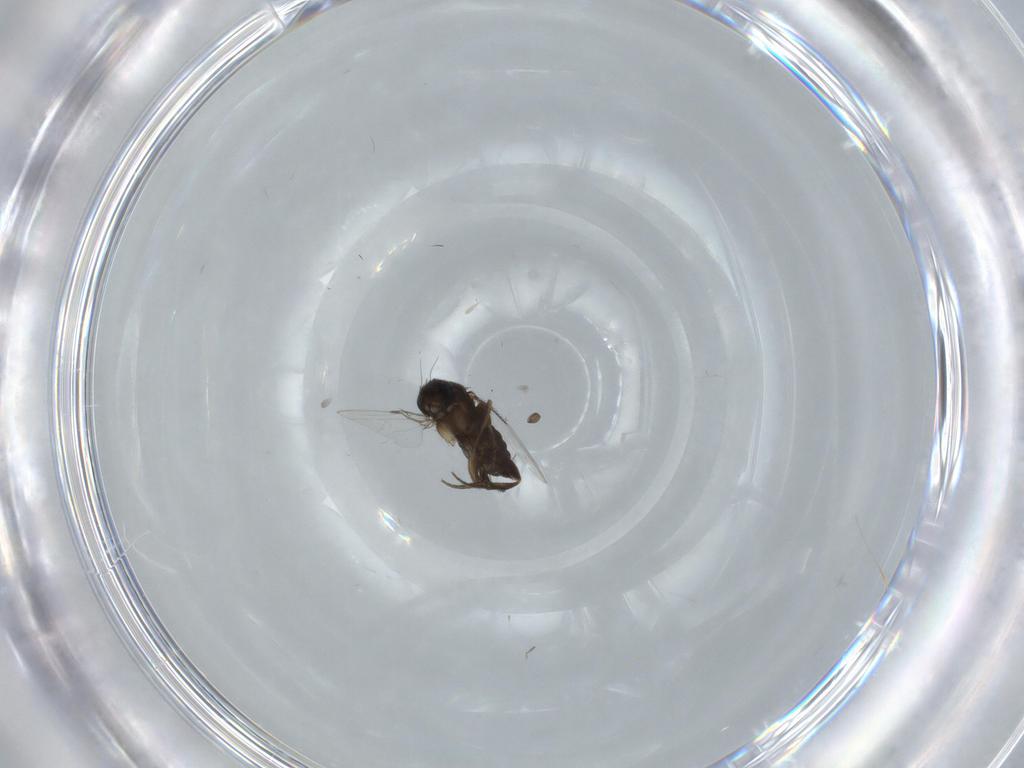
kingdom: Animalia
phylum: Arthropoda
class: Insecta
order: Diptera
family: Phoridae
